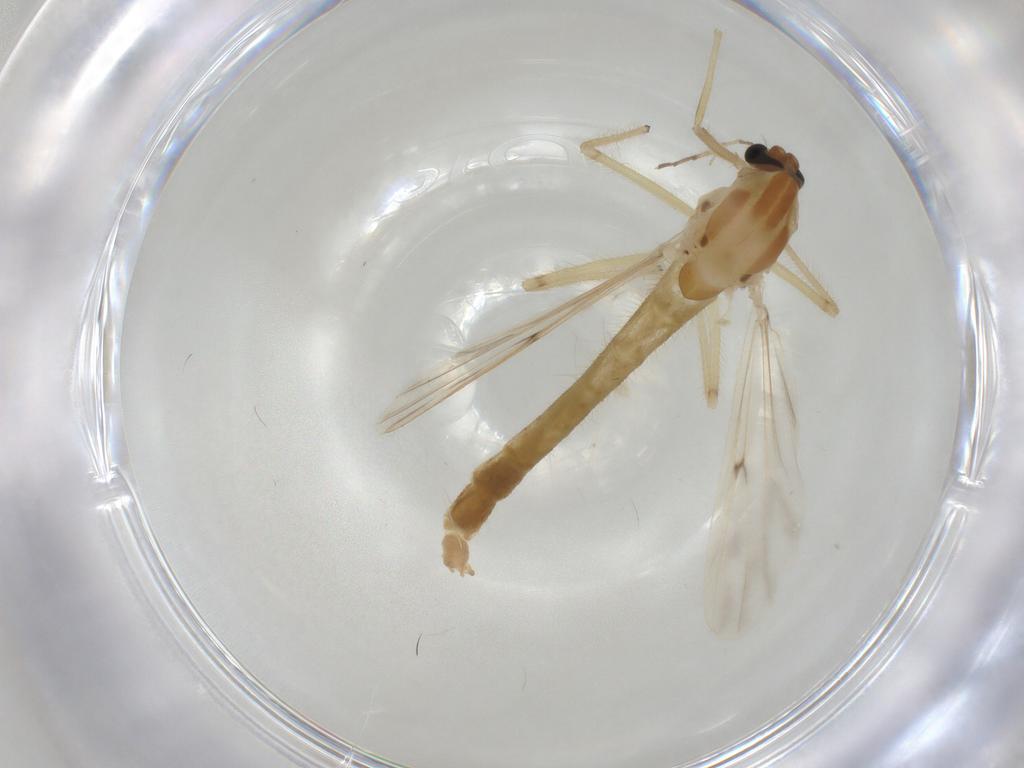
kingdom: Animalia
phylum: Arthropoda
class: Insecta
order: Diptera
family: Chironomidae
